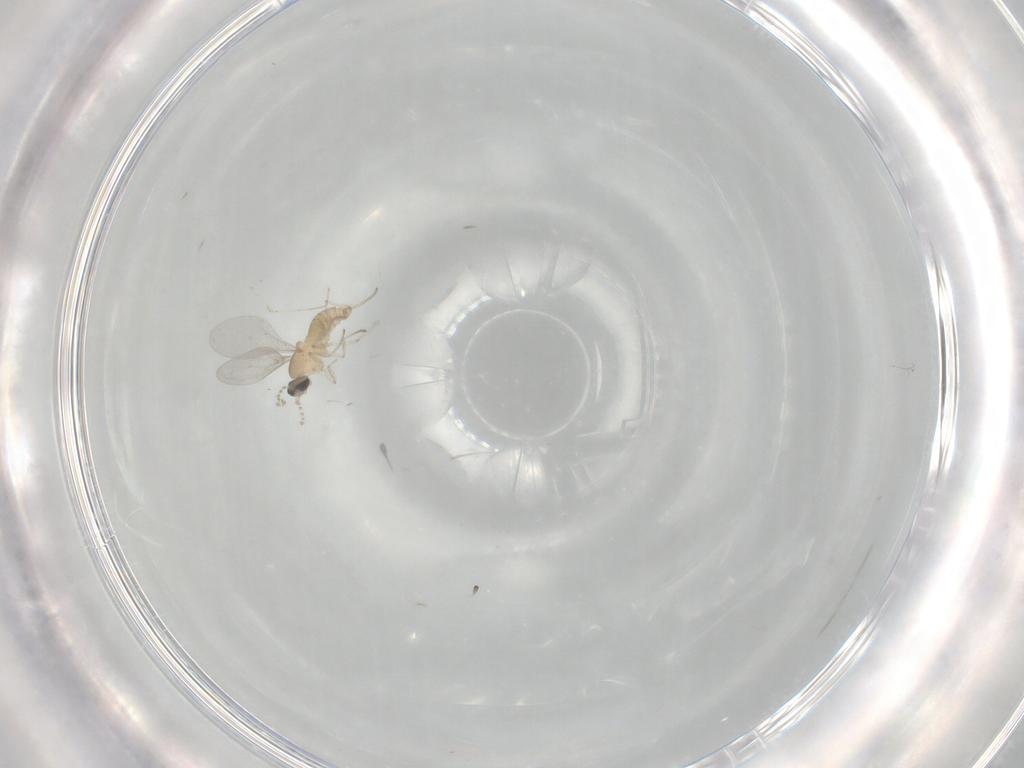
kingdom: Animalia
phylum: Arthropoda
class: Insecta
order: Diptera
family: Cecidomyiidae
